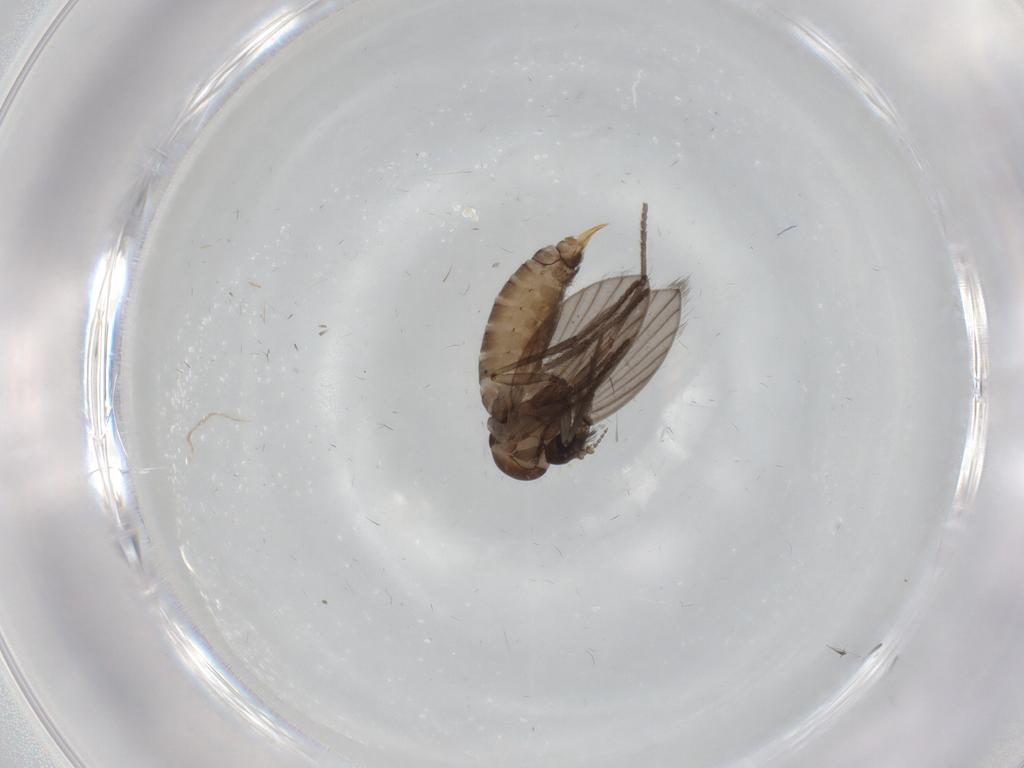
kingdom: Animalia
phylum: Arthropoda
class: Insecta
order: Diptera
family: Psychodidae
